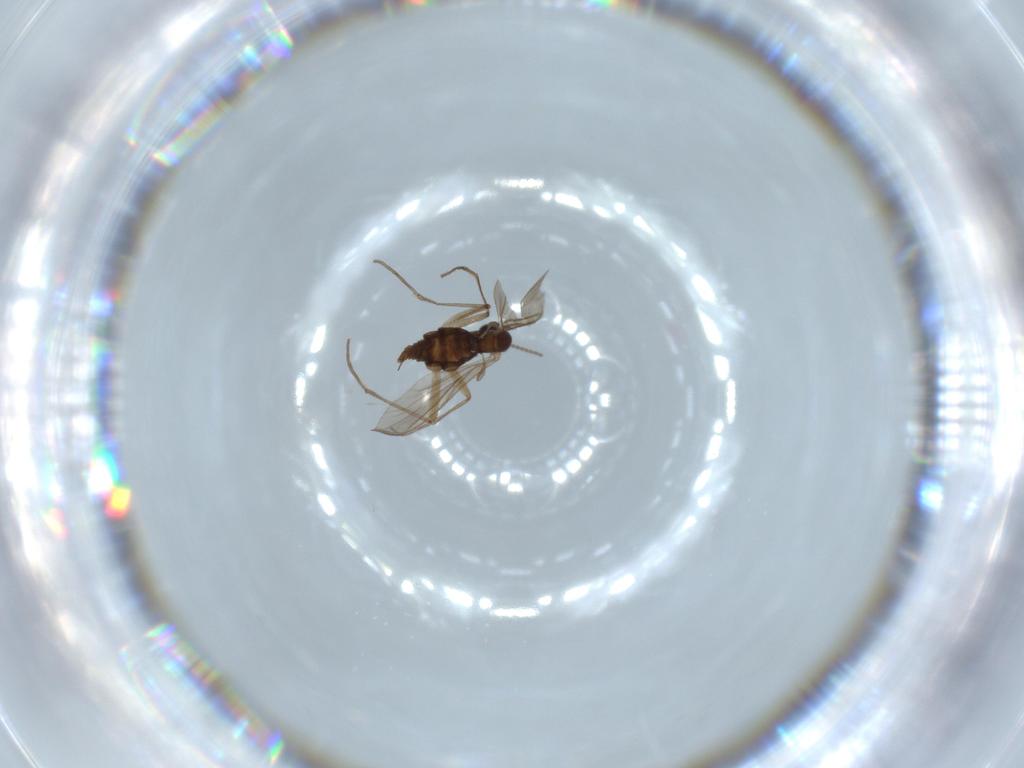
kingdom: Animalia
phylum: Arthropoda
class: Insecta
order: Diptera
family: Sciaridae
